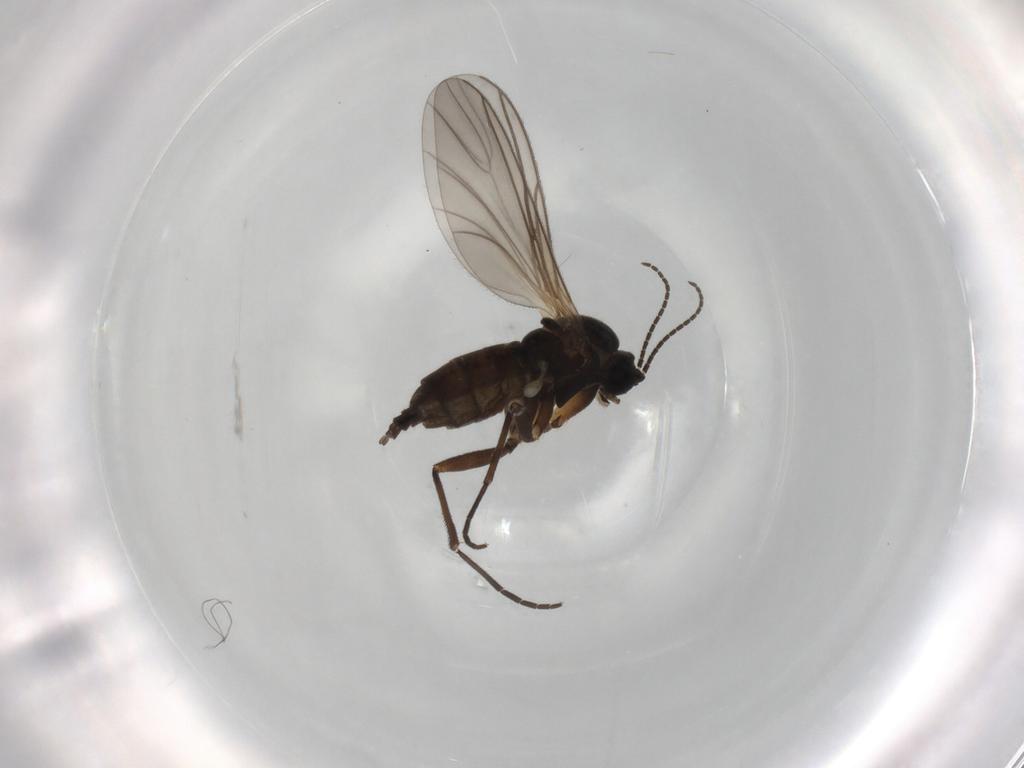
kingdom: Animalia
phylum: Arthropoda
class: Insecta
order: Diptera
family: Sciaridae
